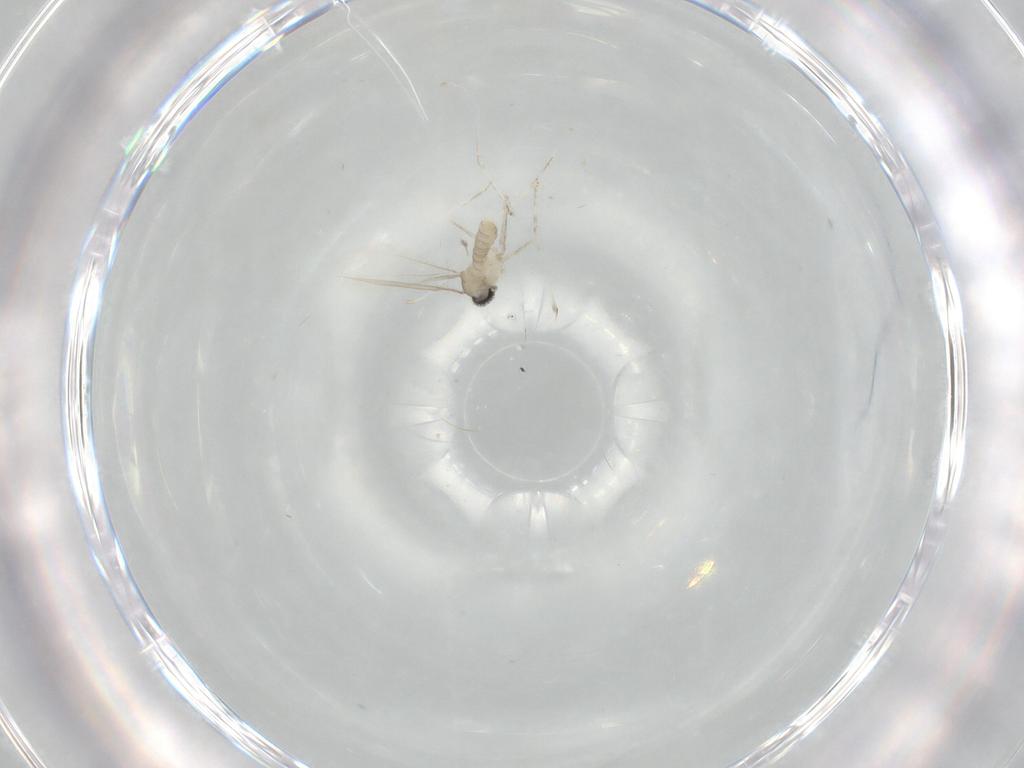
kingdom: Animalia
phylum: Arthropoda
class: Insecta
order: Diptera
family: Cecidomyiidae
